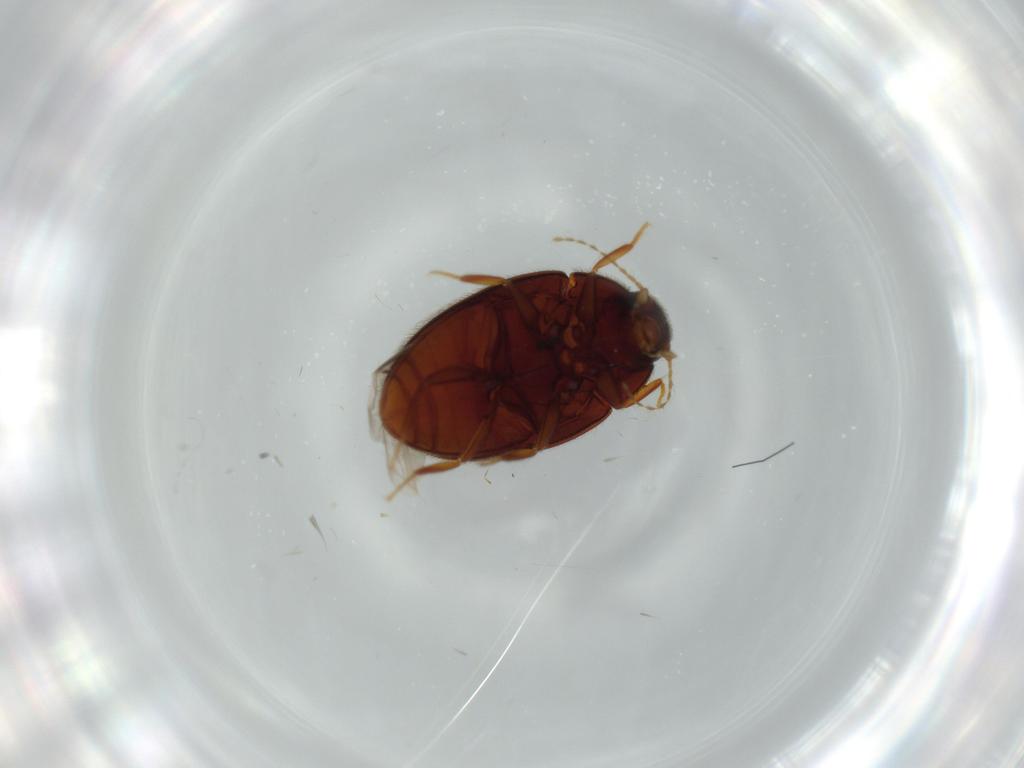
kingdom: Animalia
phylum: Arthropoda
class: Insecta
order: Coleoptera
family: Limnichidae
